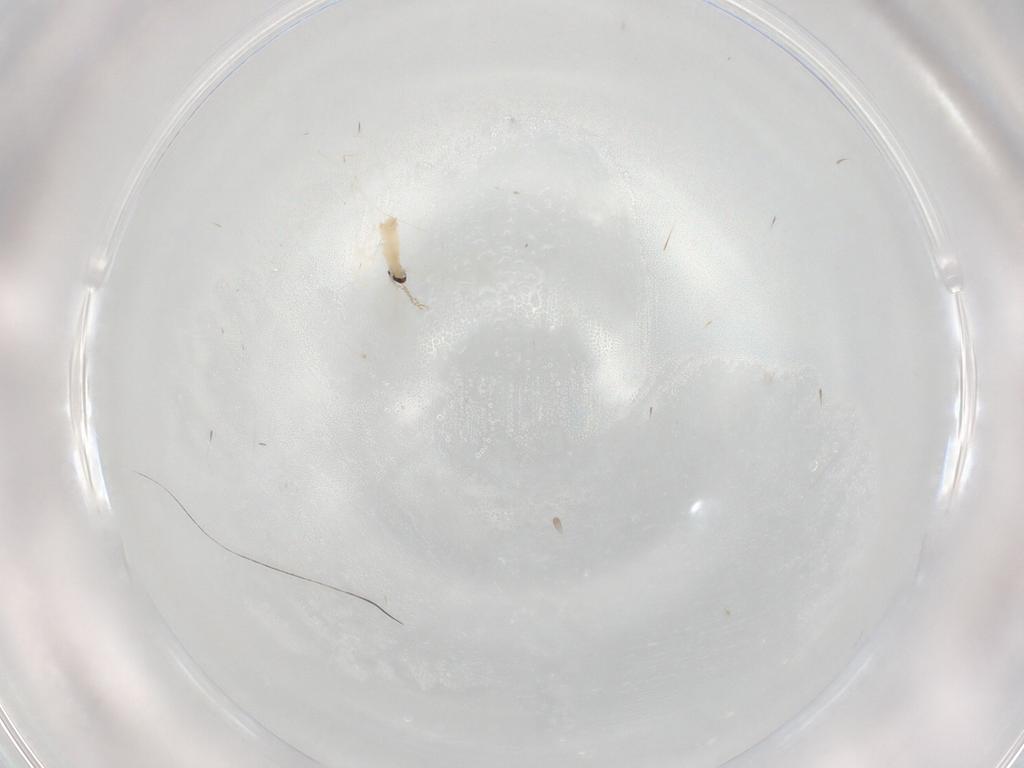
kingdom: Animalia
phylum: Arthropoda
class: Insecta
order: Diptera
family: Cecidomyiidae
